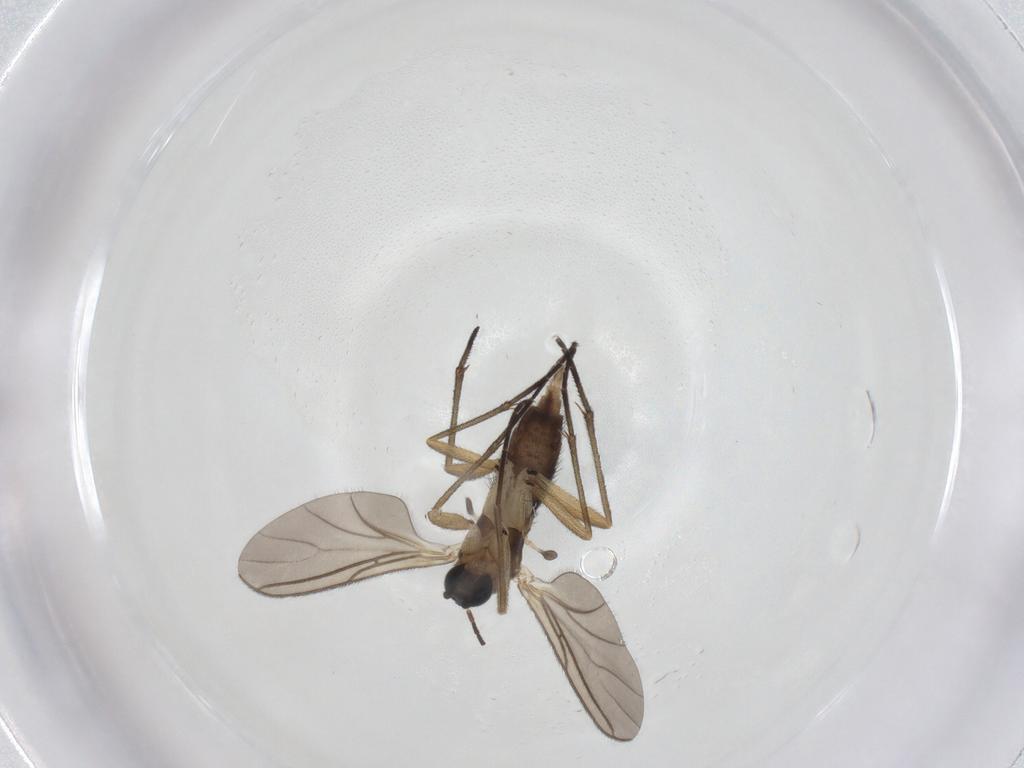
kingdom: Animalia
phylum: Arthropoda
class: Insecta
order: Diptera
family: Sciaridae
